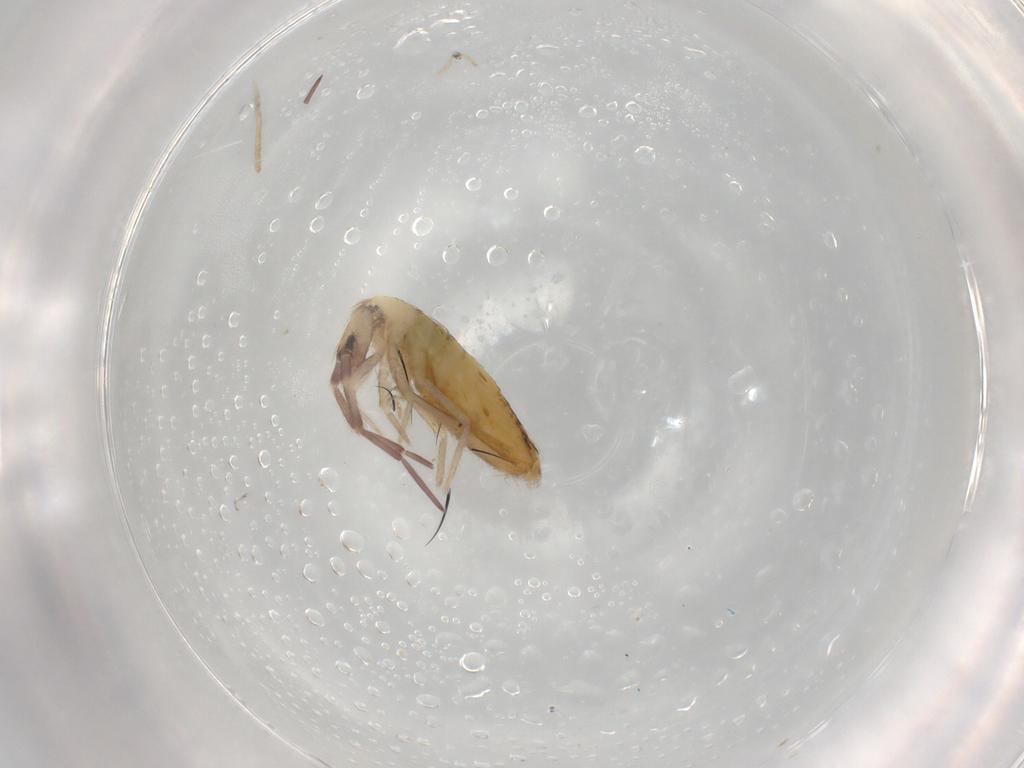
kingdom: Animalia
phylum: Arthropoda
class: Collembola
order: Entomobryomorpha
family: Entomobryidae
